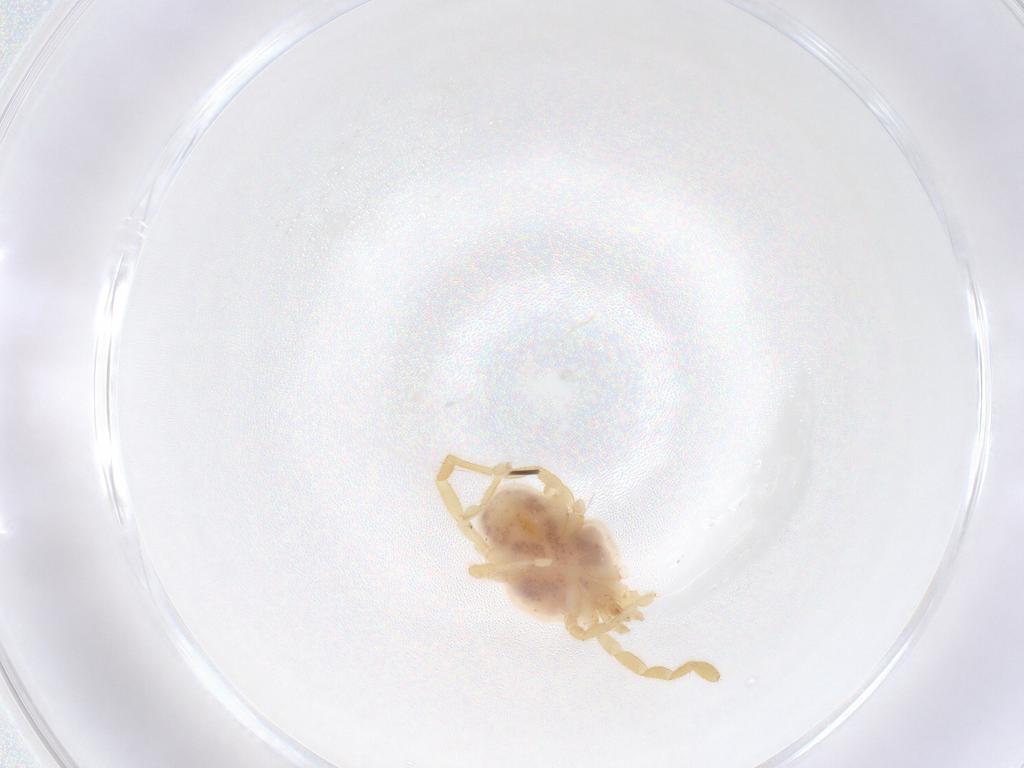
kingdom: Animalia
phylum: Arthropoda
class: Arachnida
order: Trombidiformes
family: Erythraeidae
